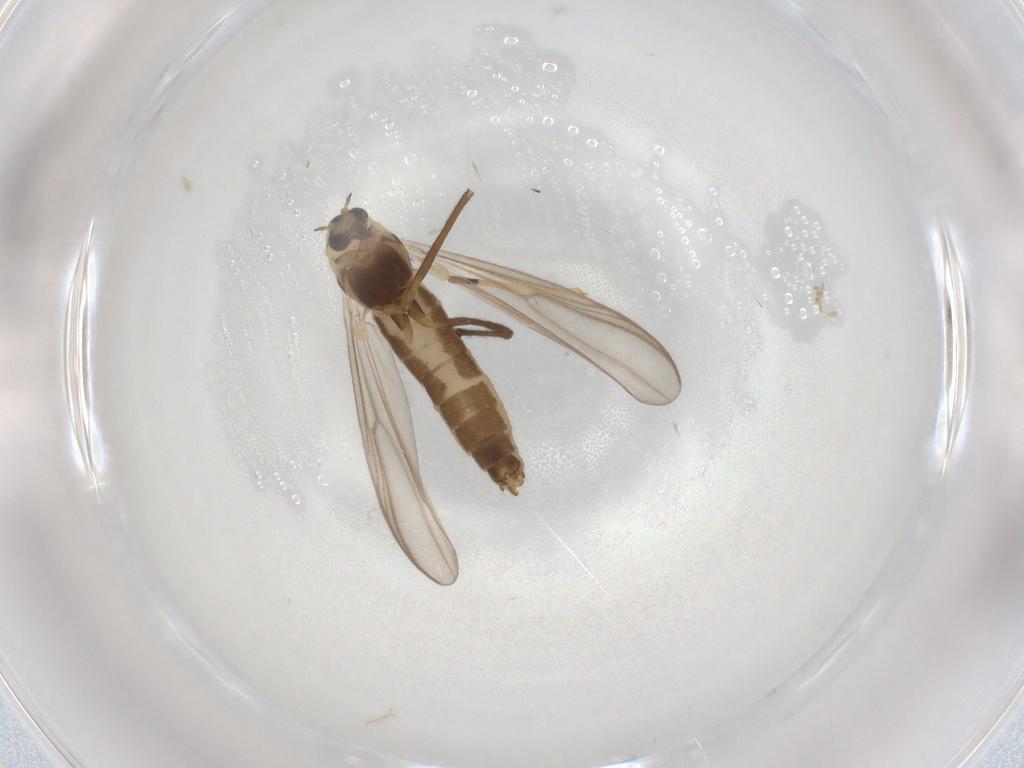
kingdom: Animalia
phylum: Arthropoda
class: Insecta
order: Diptera
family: Chironomidae
